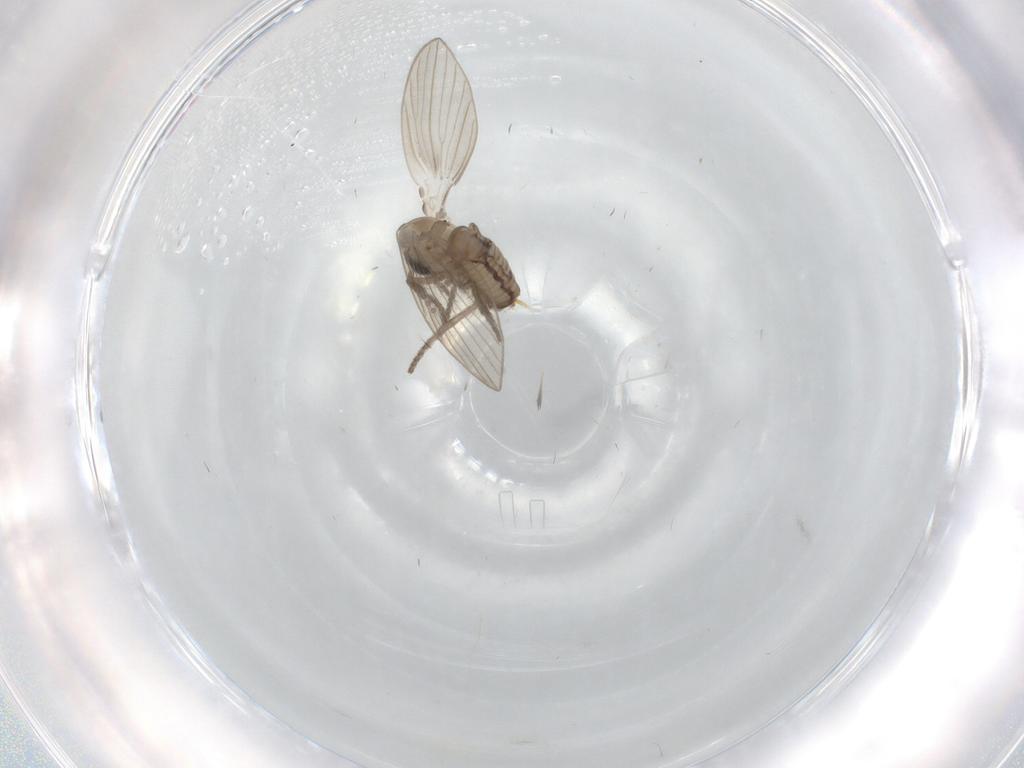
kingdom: Animalia
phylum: Arthropoda
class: Insecta
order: Diptera
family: Psychodidae
